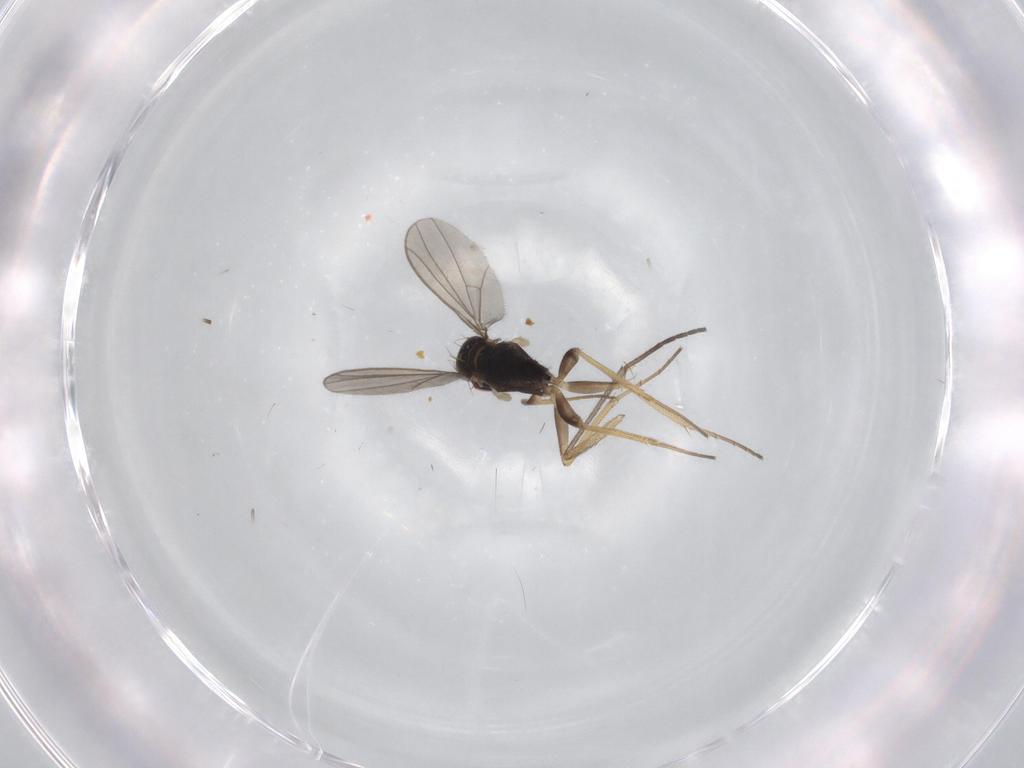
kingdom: Animalia
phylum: Arthropoda
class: Insecta
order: Diptera
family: Sciaridae
